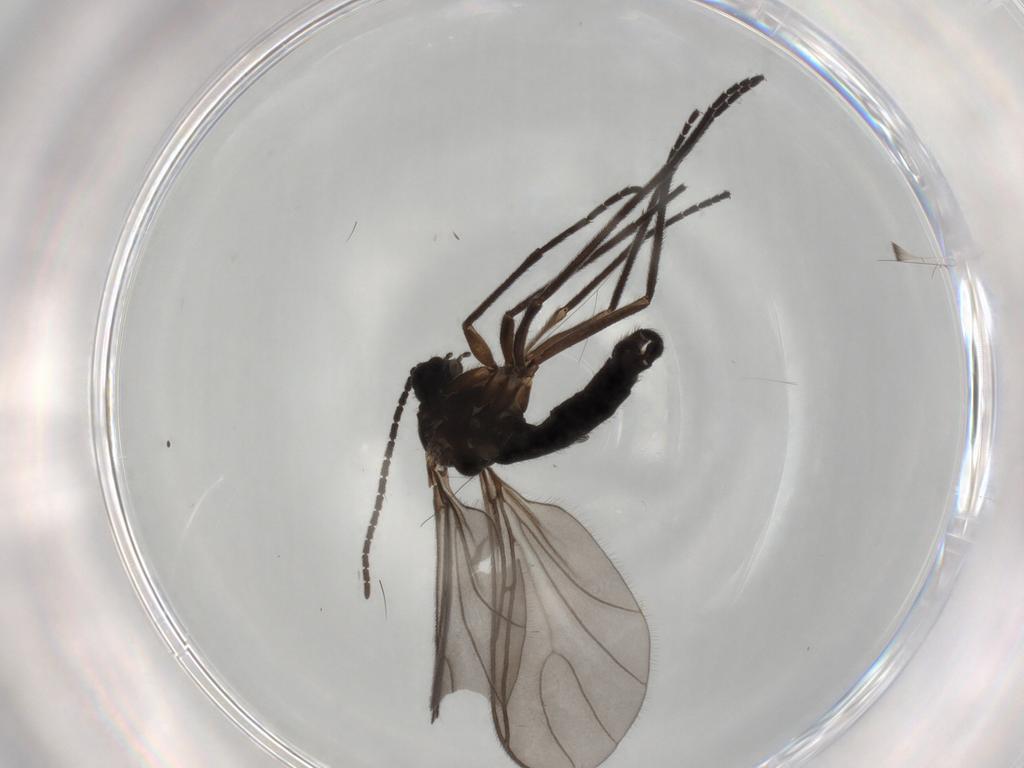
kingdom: Animalia
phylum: Arthropoda
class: Insecta
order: Diptera
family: Sciaridae
